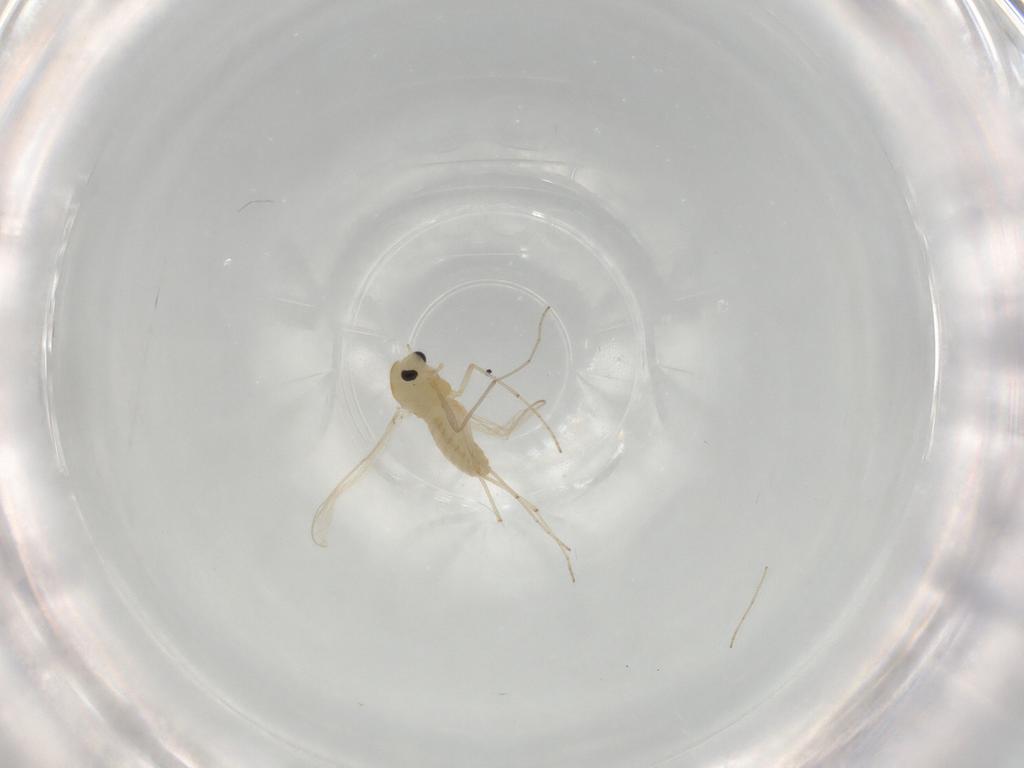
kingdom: Animalia
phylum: Arthropoda
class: Insecta
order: Diptera
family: Chironomidae
